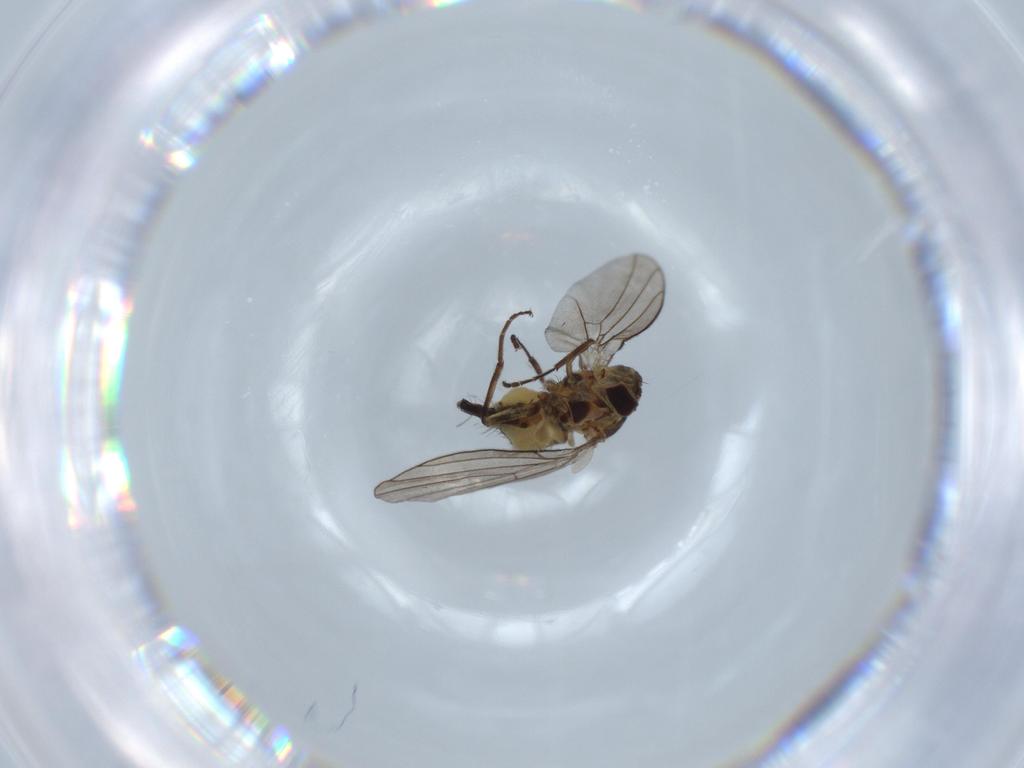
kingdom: Animalia
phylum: Arthropoda
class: Insecta
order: Diptera
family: Agromyzidae
